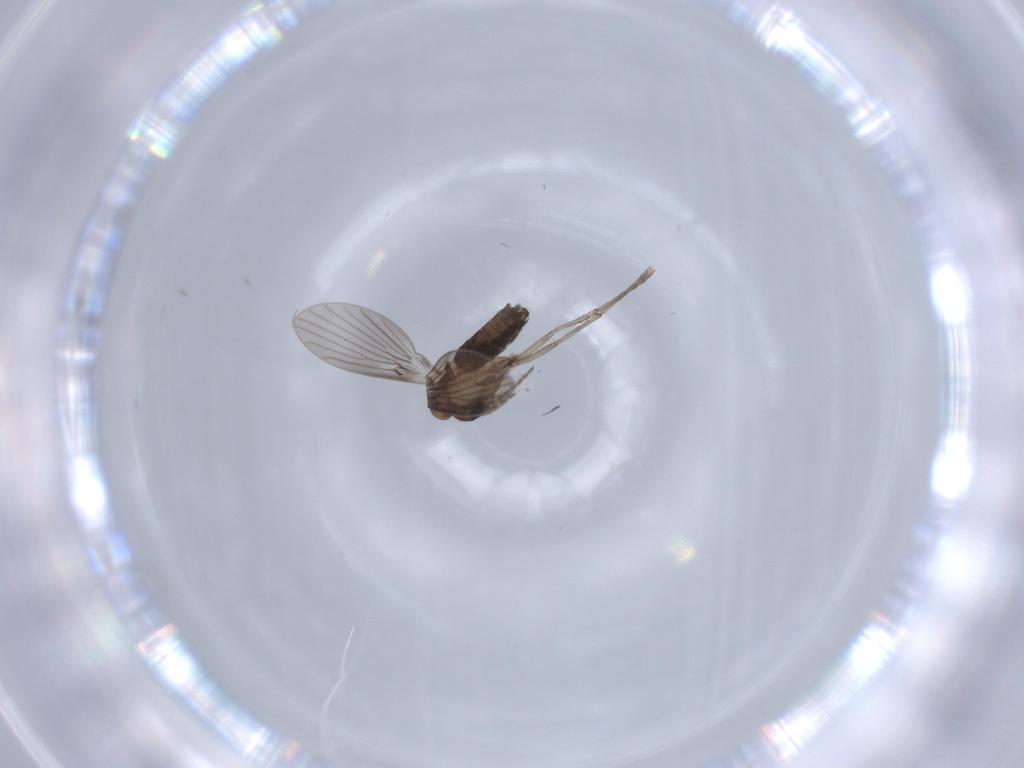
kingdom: Animalia
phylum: Arthropoda
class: Insecta
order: Diptera
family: Psychodidae
